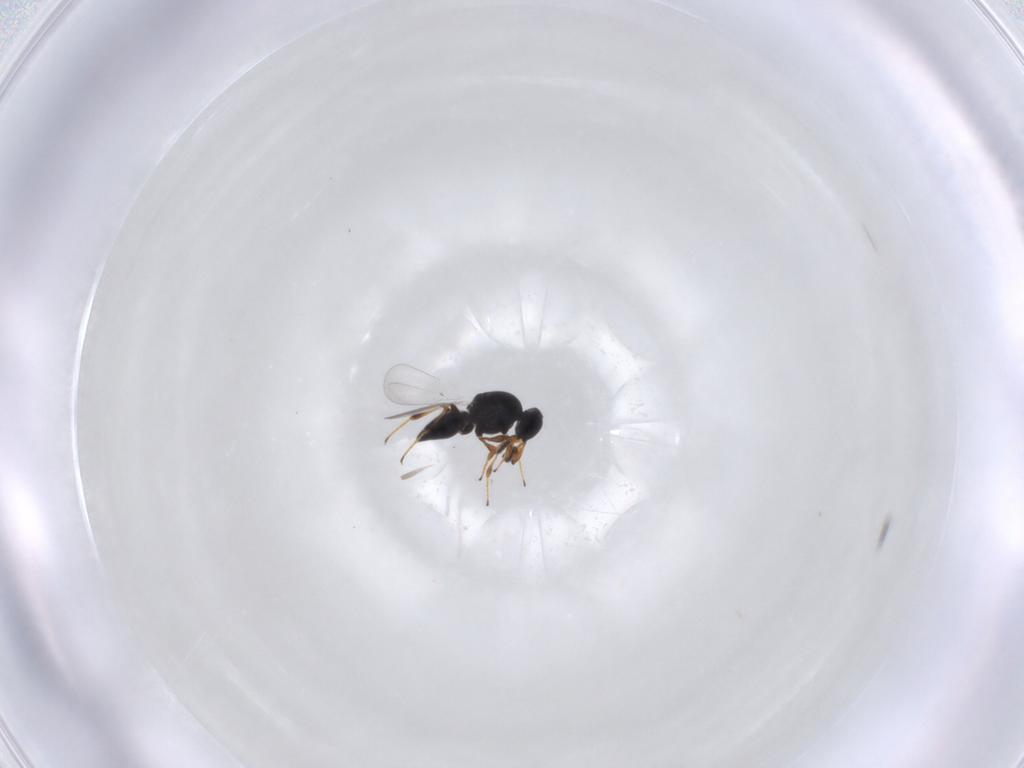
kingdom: Animalia
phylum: Arthropoda
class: Insecta
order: Hymenoptera
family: Platygastridae
